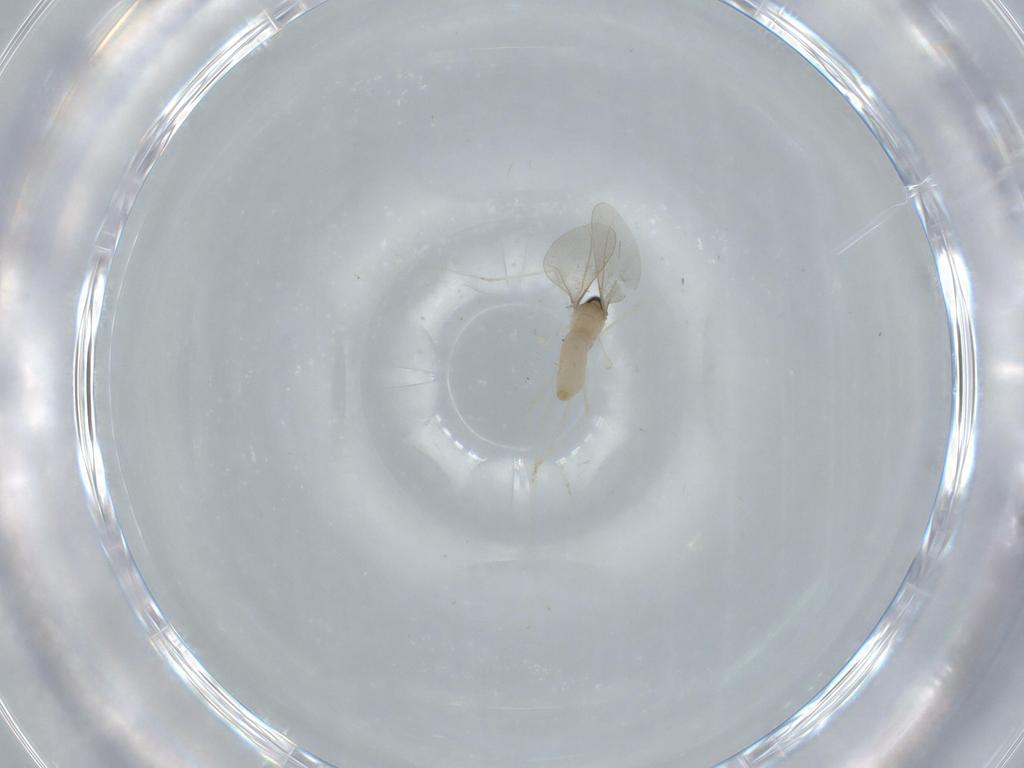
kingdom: Animalia
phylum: Arthropoda
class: Insecta
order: Diptera
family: Cecidomyiidae
